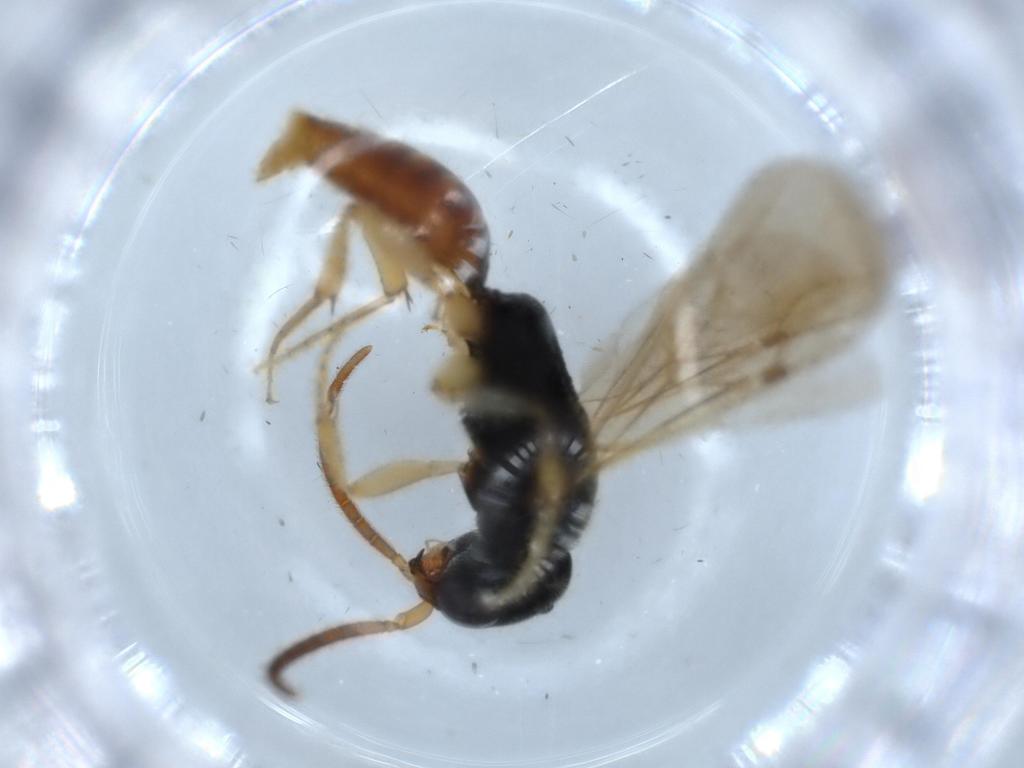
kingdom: Animalia
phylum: Arthropoda
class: Insecta
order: Hymenoptera
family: Bethylidae
